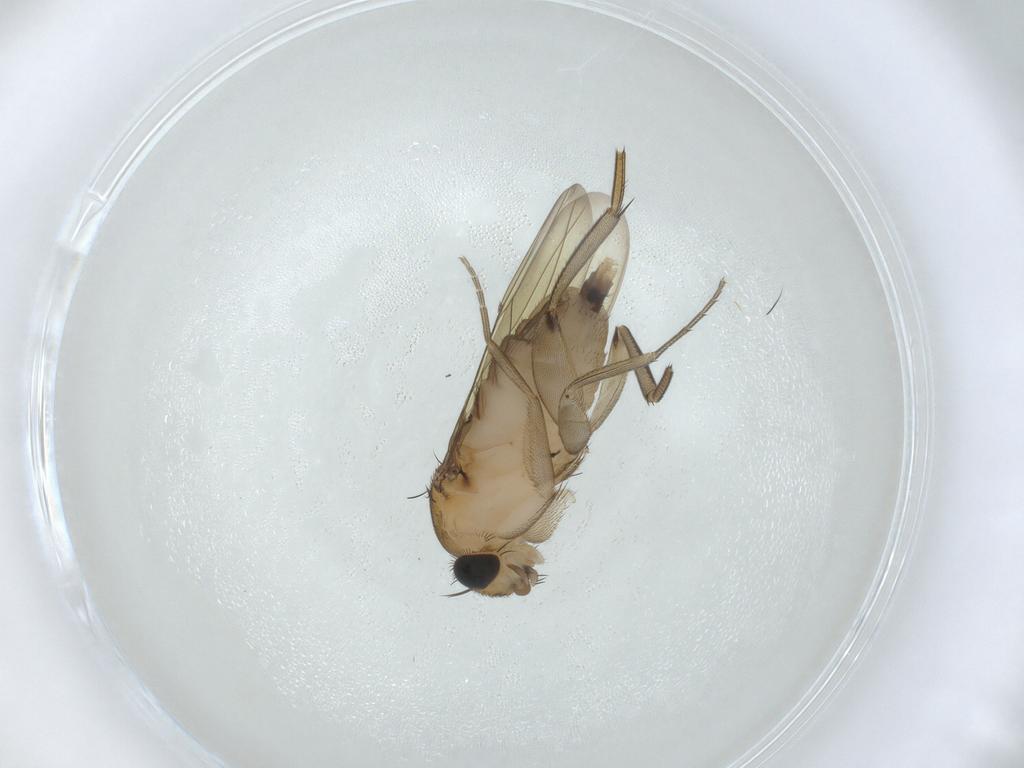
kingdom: Animalia
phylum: Arthropoda
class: Insecta
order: Diptera
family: Phoridae
